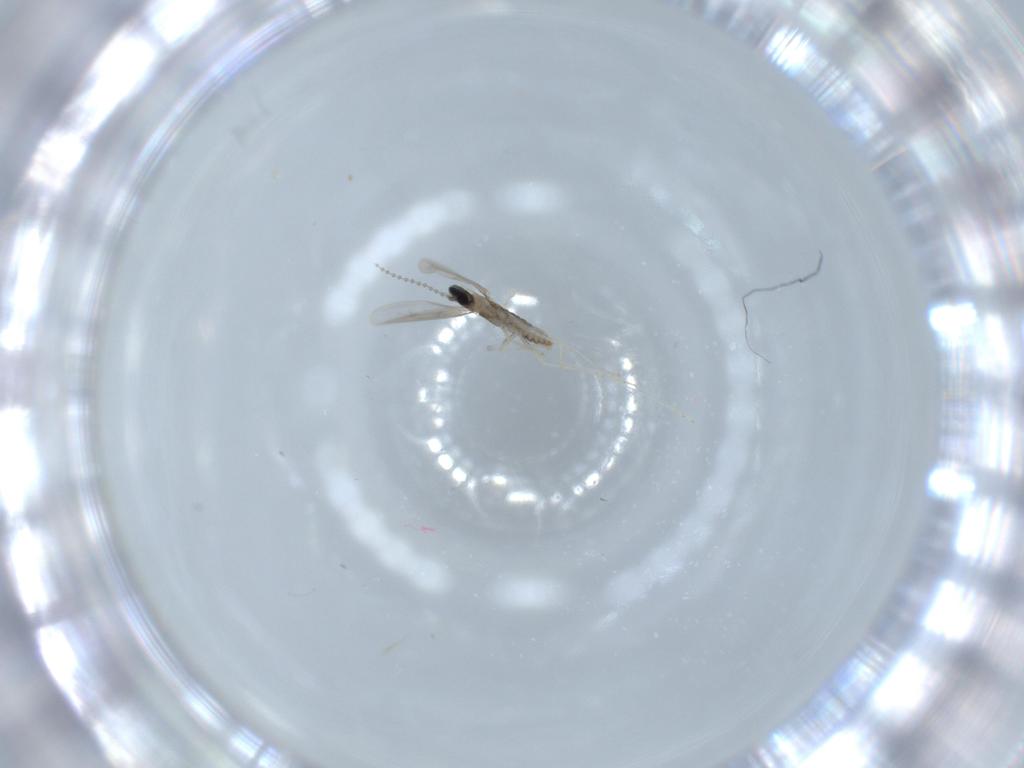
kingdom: Animalia
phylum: Arthropoda
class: Insecta
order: Diptera
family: Cecidomyiidae
